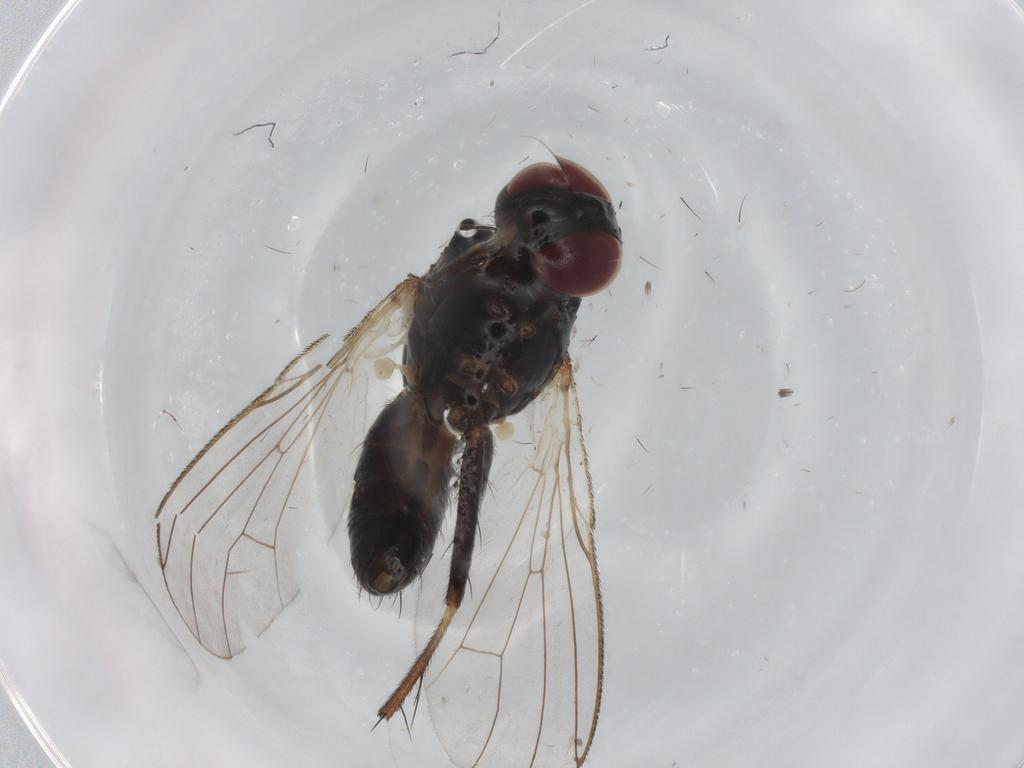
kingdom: Animalia
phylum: Arthropoda
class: Insecta
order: Diptera
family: Muscidae
